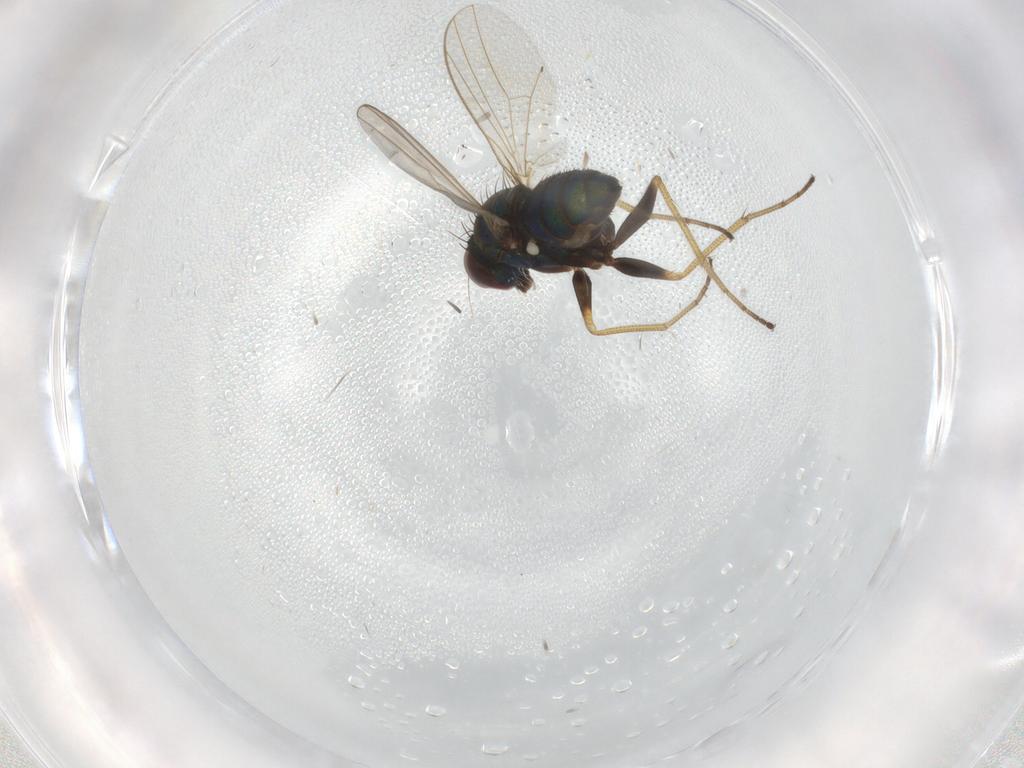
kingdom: Animalia
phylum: Arthropoda
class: Insecta
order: Diptera
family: Dolichopodidae
